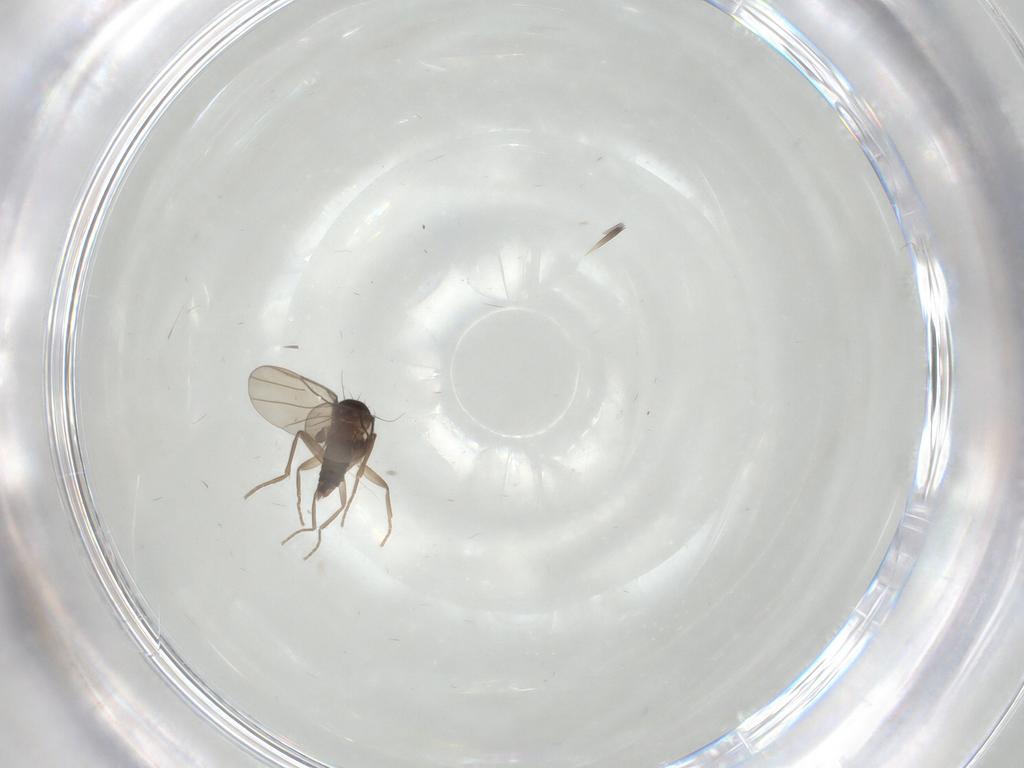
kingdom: Animalia
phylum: Arthropoda
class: Insecta
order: Diptera
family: Phoridae
